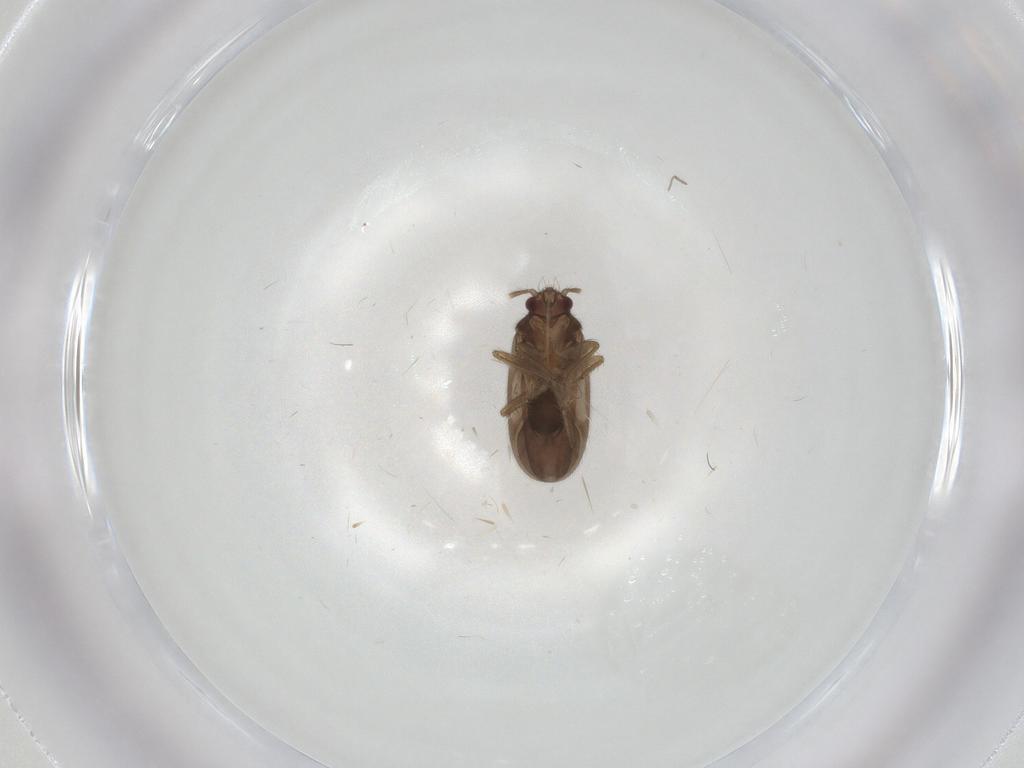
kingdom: Animalia
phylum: Arthropoda
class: Insecta
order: Hemiptera
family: Ceratocombidae
